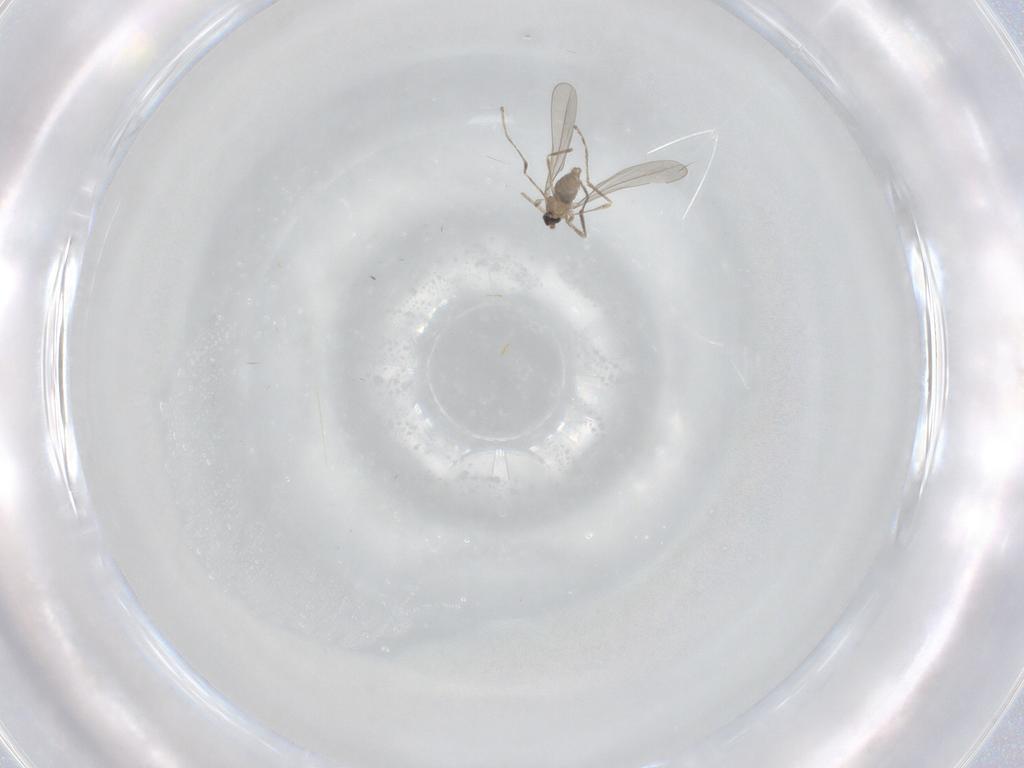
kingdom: Animalia
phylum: Arthropoda
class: Insecta
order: Diptera
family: Cecidomyiidae
